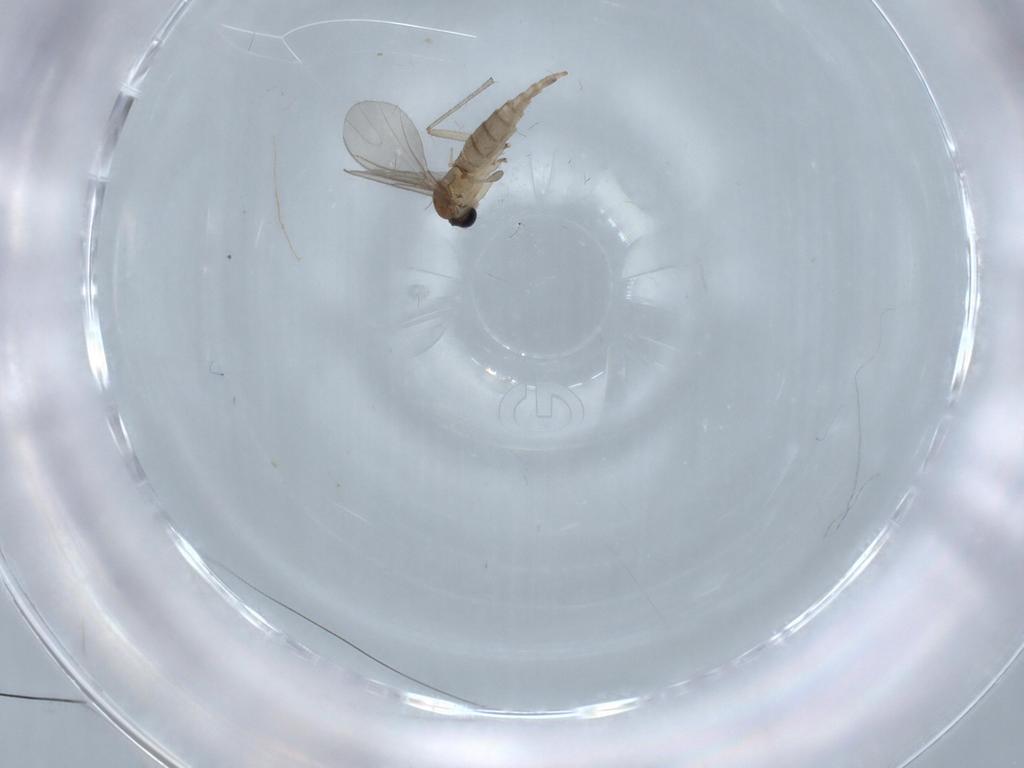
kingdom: Animalia
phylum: Arthropoda
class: Insecta
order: Diptera
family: Sciaridae
